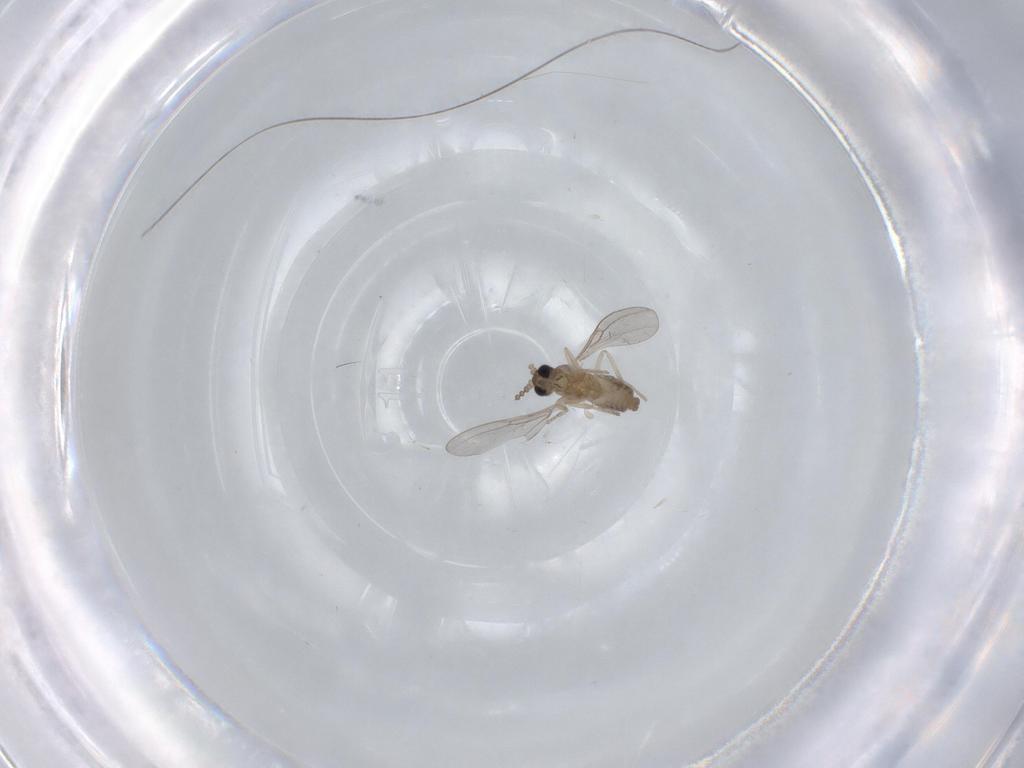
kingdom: Animalia
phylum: Arthropoda
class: Insecta
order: Diptera
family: Cecidomyiidae
